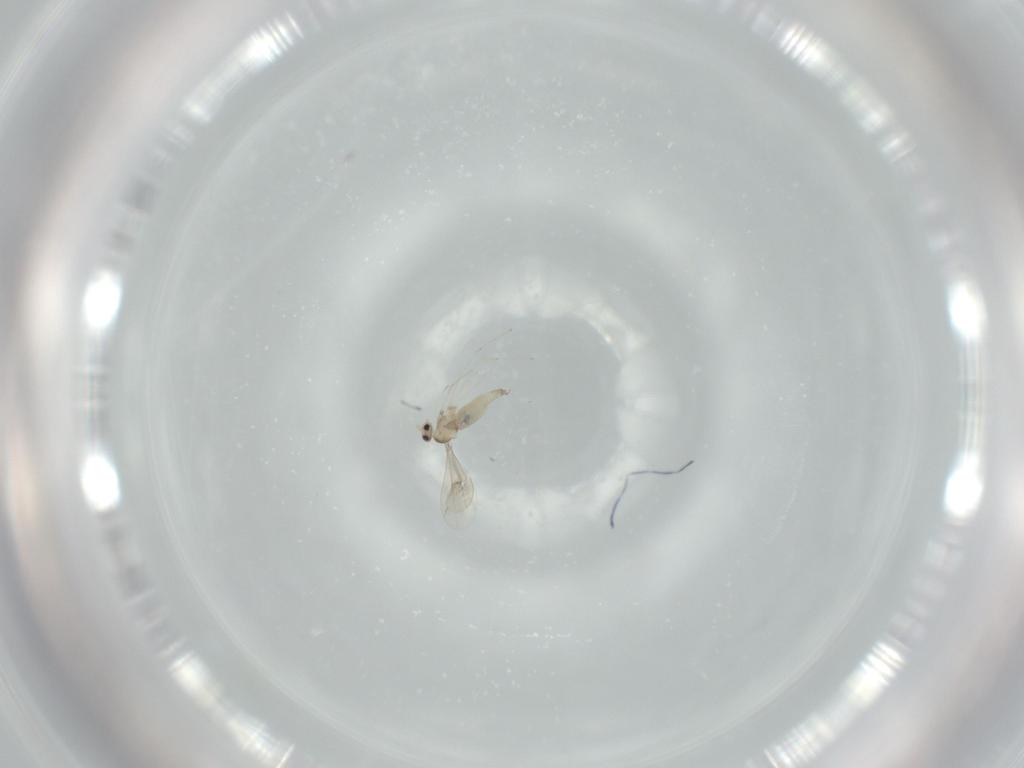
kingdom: Animalia
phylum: Arthropoda
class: Insecta
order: Diptera
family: Cecidomyiidae
